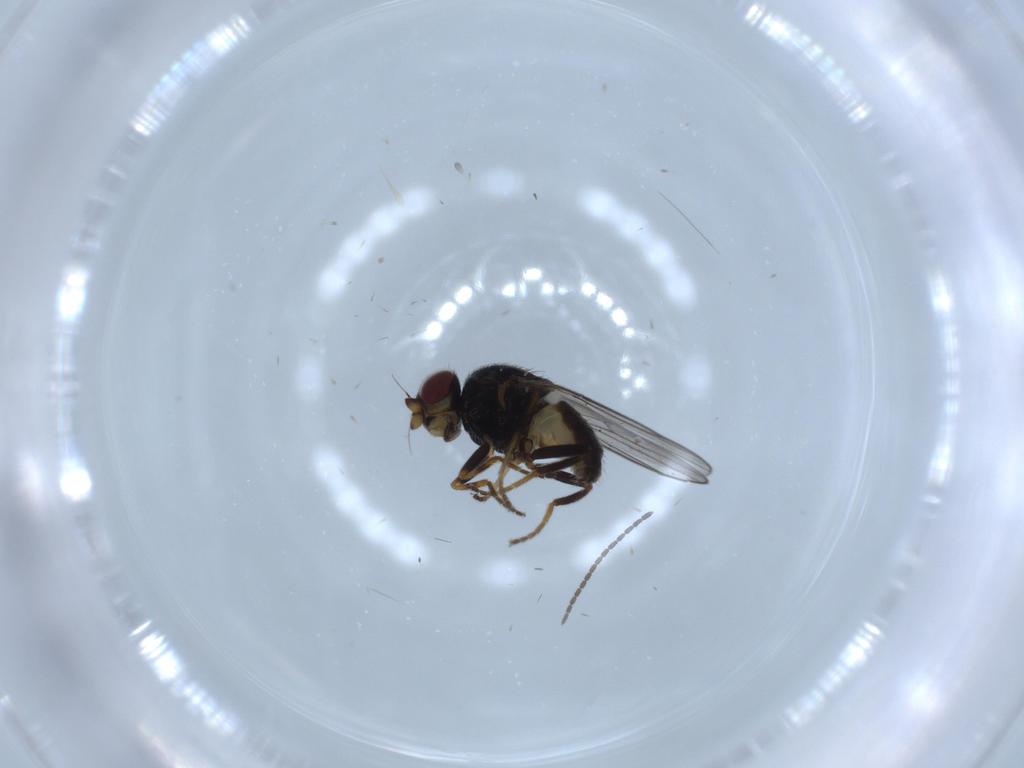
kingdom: Animalia
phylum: Arthropoda
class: Insecta
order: Diptera
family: Chloropidae
